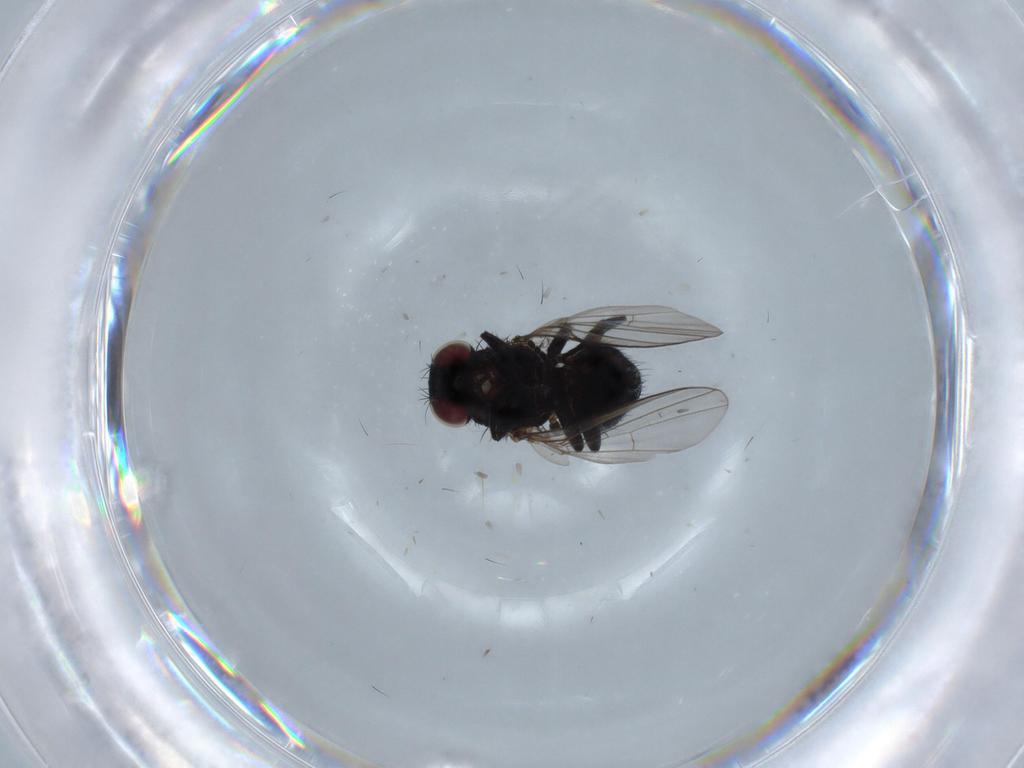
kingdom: Animalia
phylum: Arthropoda
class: Insecta
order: Diptera
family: Agromyzidae
